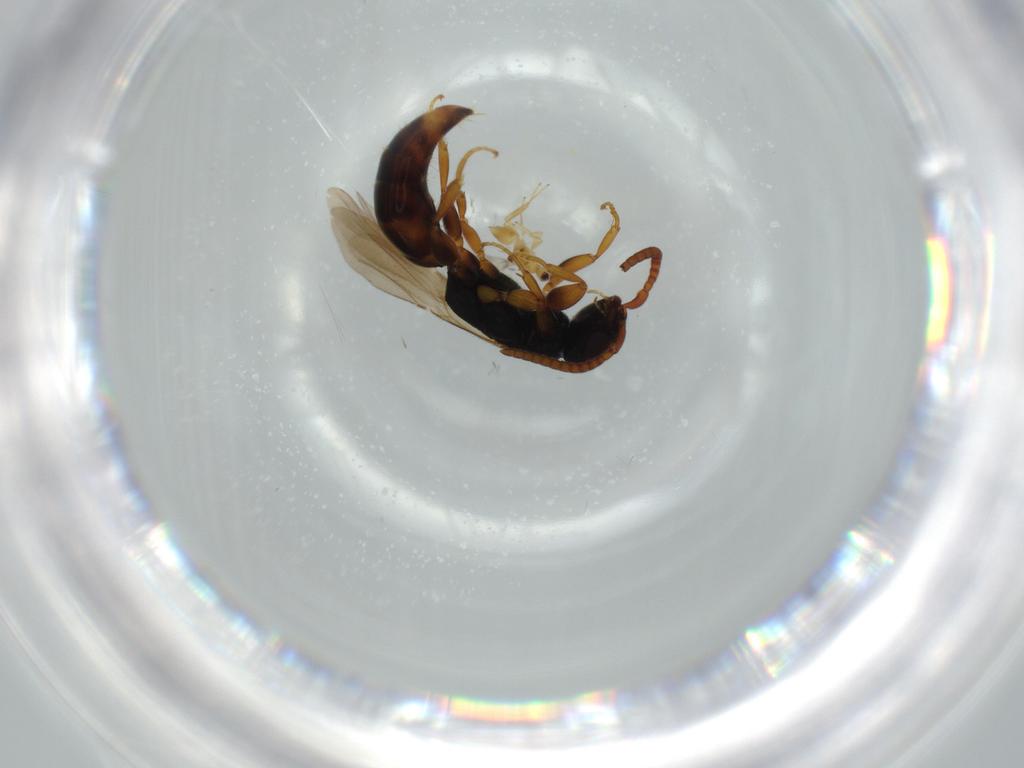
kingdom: Animalia
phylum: Arthropoda
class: Insecta
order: Hymenoptera
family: Bethylidae
